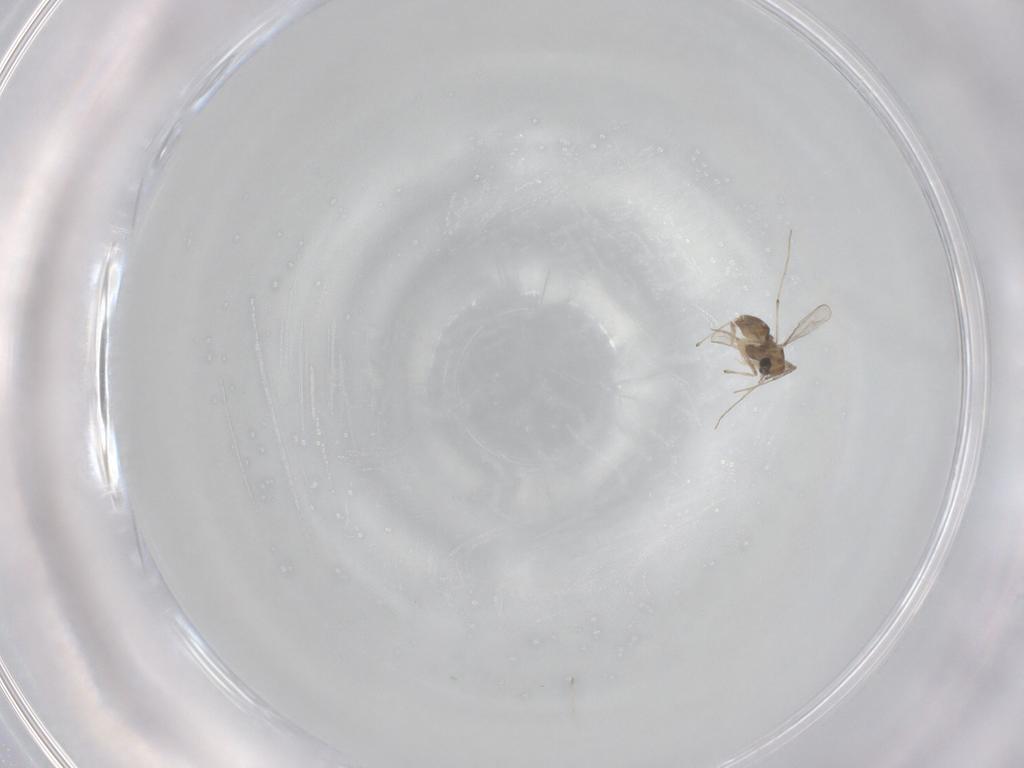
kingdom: Animalia
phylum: Arthropoda
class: Insecta
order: Diptera
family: Chironomidae
